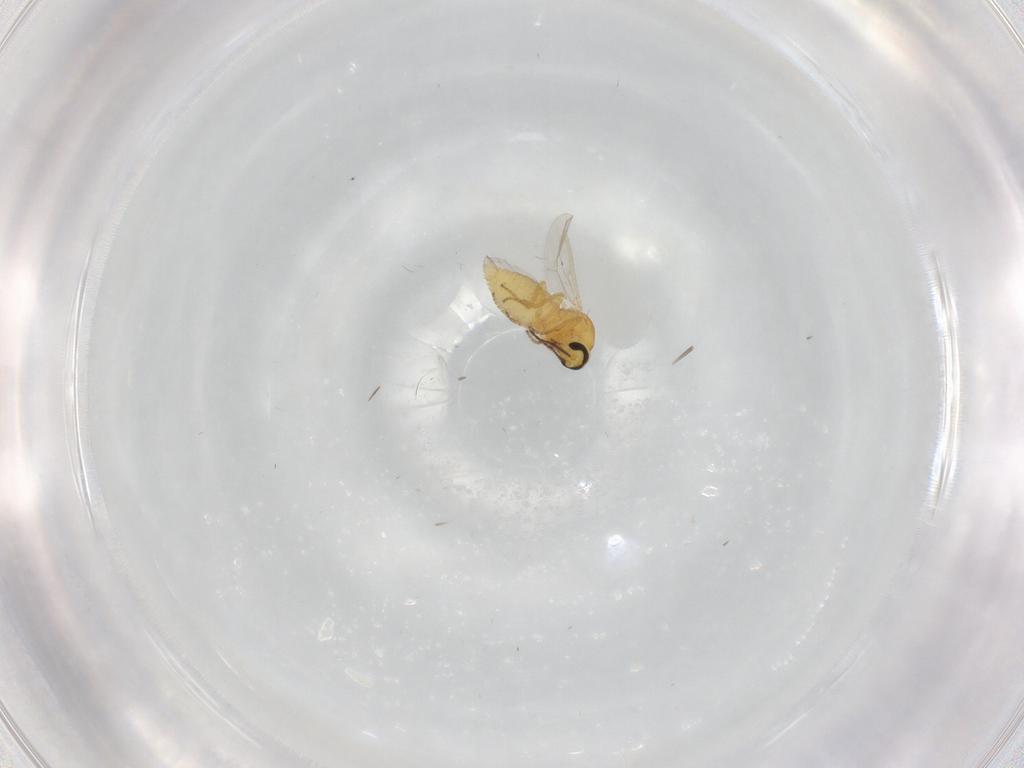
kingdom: Animalia
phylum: Arthropoda
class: Insecta
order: Diptera
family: Ceratopogonidae
